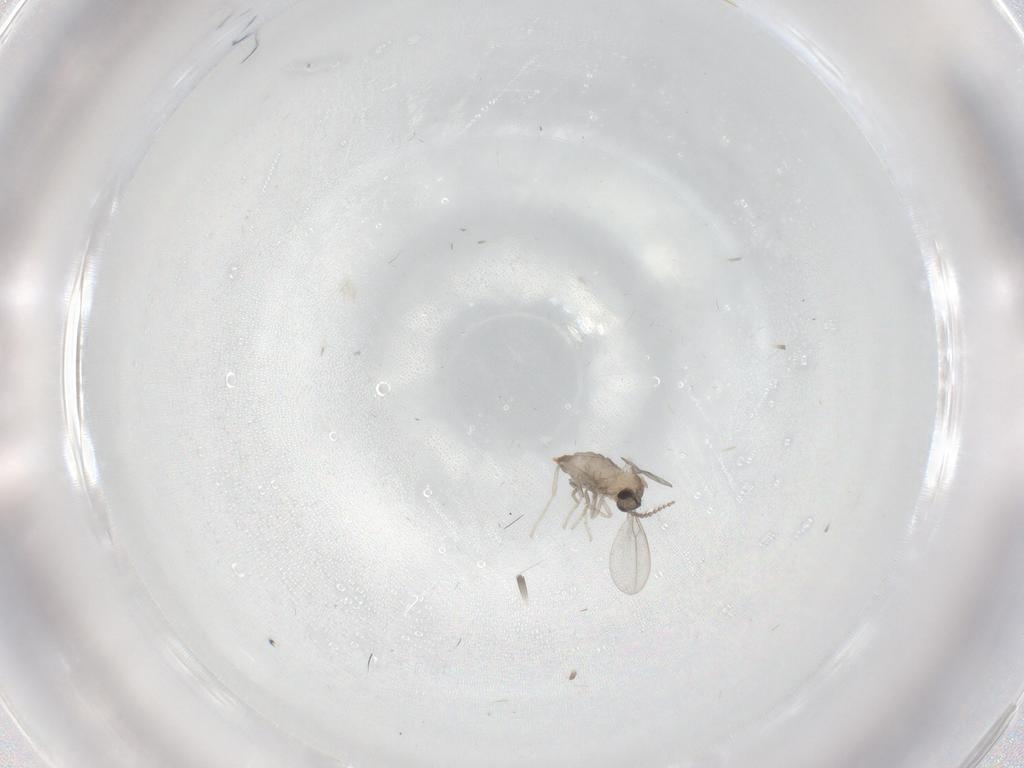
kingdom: Animalia
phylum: Arthropoda
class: Insecta
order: Diptera
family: Cecidomyiidae
